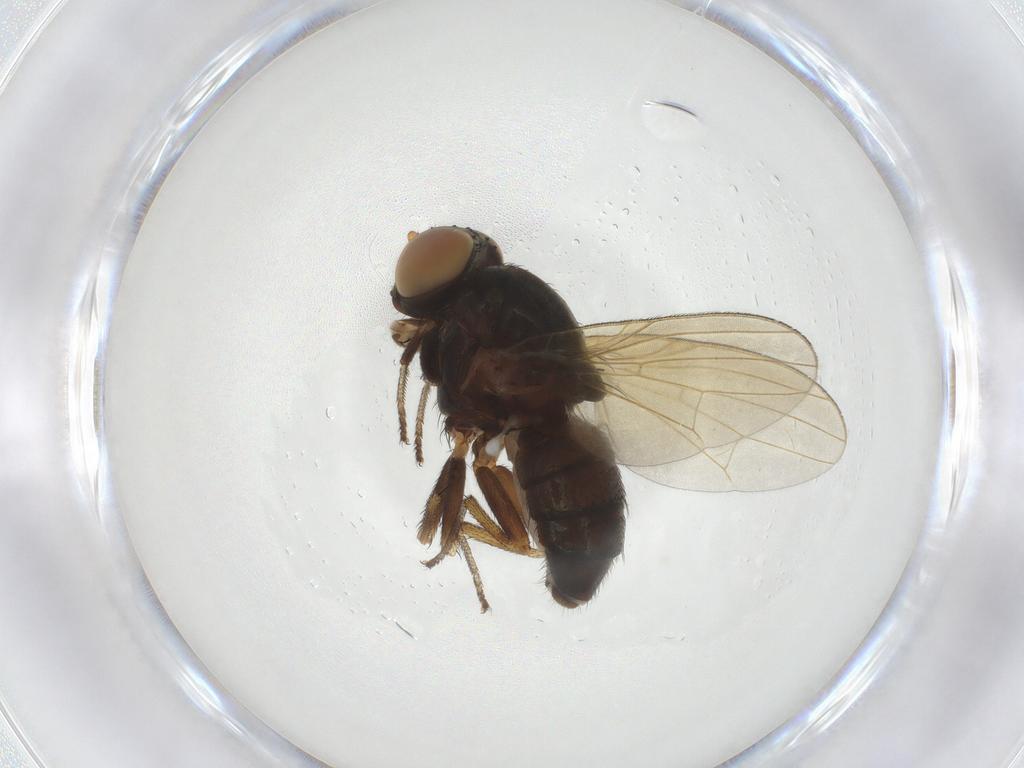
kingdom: Animalia
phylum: Arthropoda
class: Insecta
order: Diptera
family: Lauxaniidae
